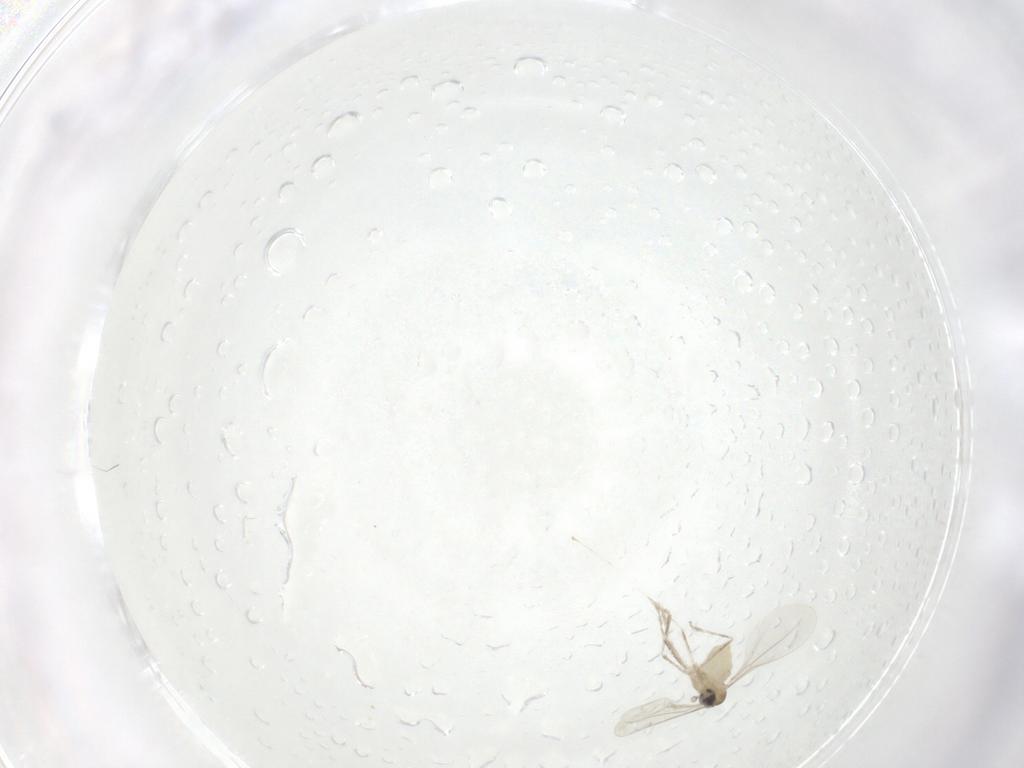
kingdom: Animalia
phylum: Arthropoda
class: Insecta
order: Diptera
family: Cecidomyiidae
